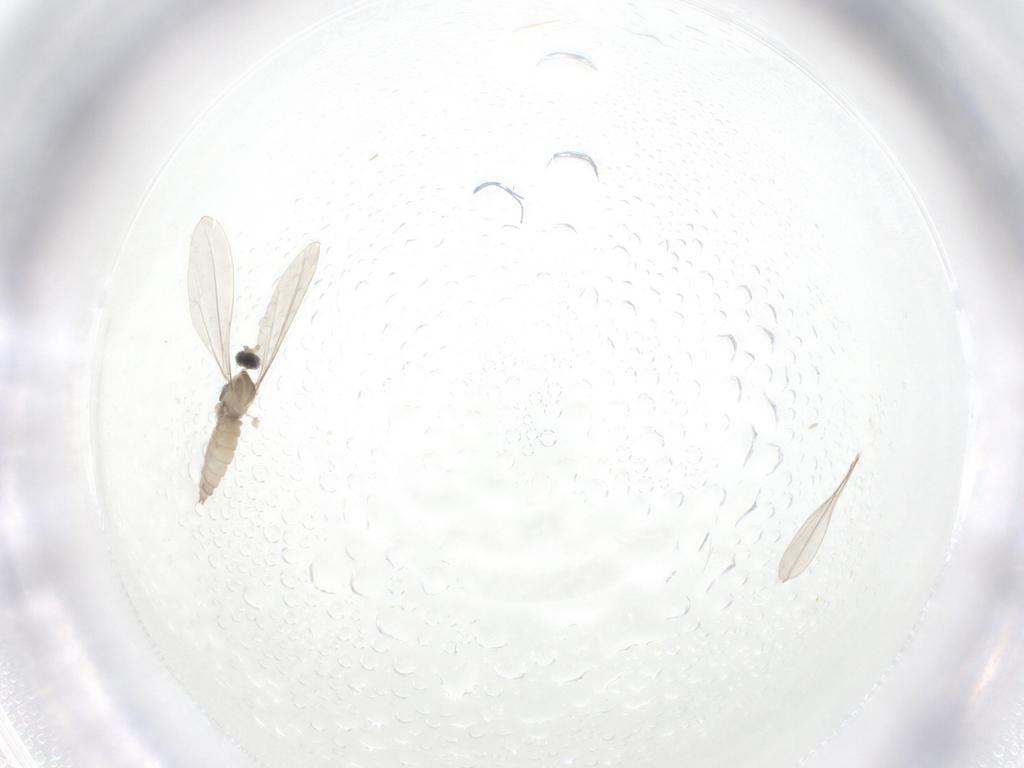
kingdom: Animalia
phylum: Arthropoda
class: Insecta
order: Diptera
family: Cecidomyiidae
